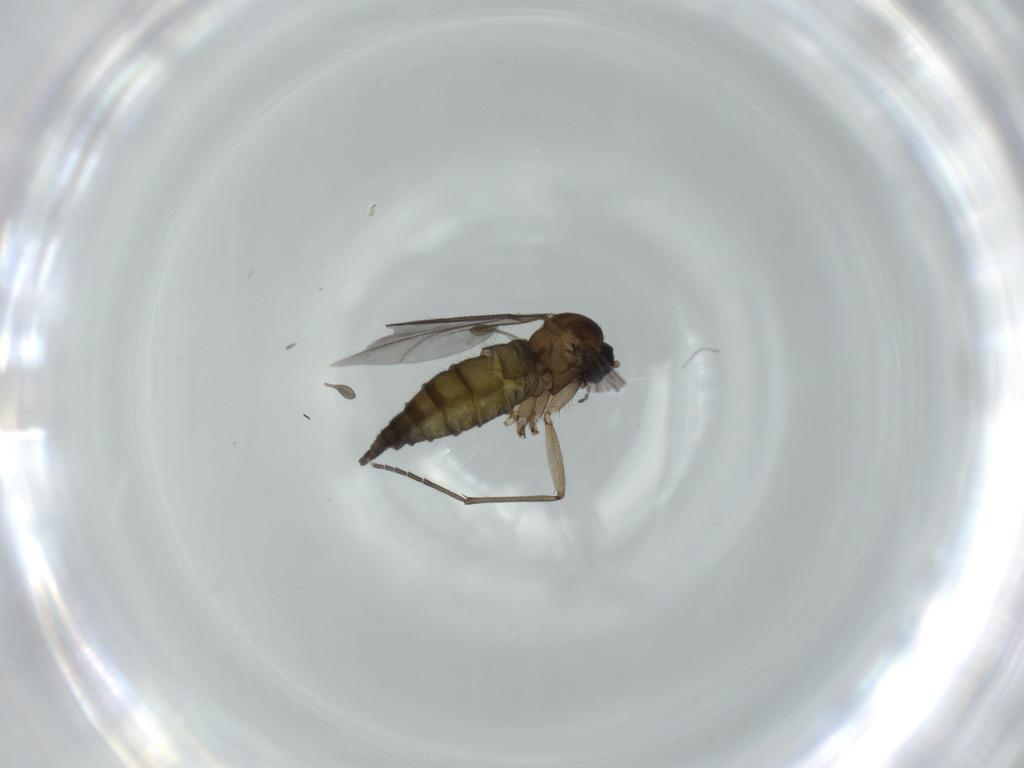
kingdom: Animalia
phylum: Arthropoda
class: Insecta
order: Diptera
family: Sciaridae
